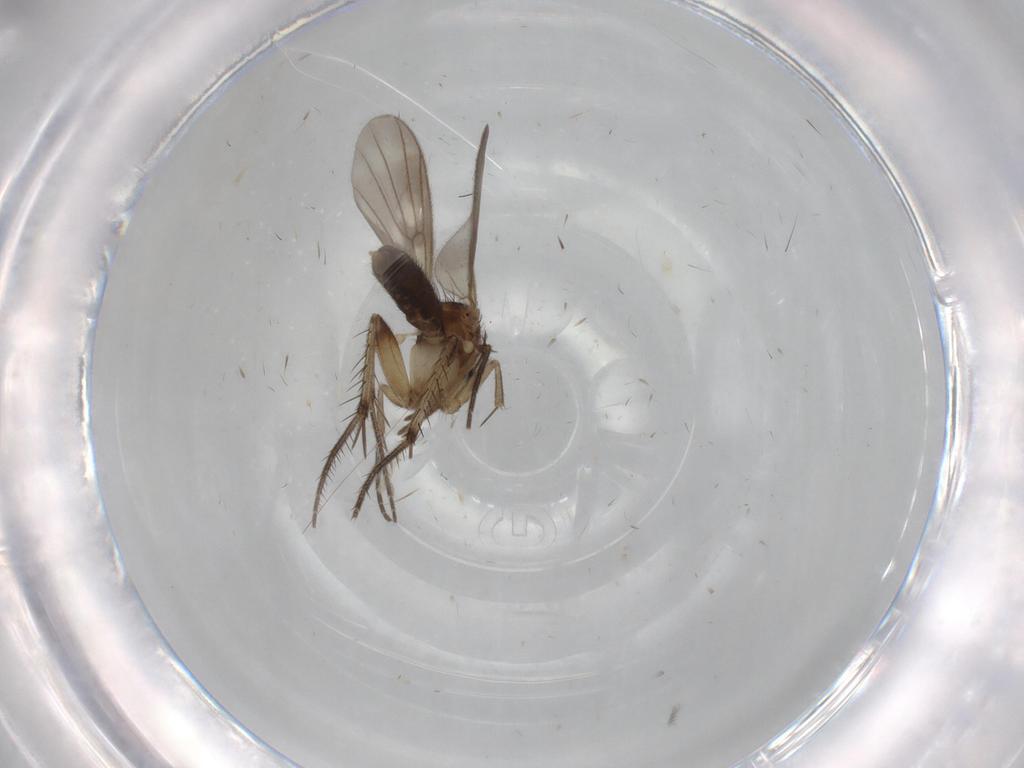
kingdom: Animalia
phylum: Arthropoda
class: Insecta
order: Diptera
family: Mycetophilidae
